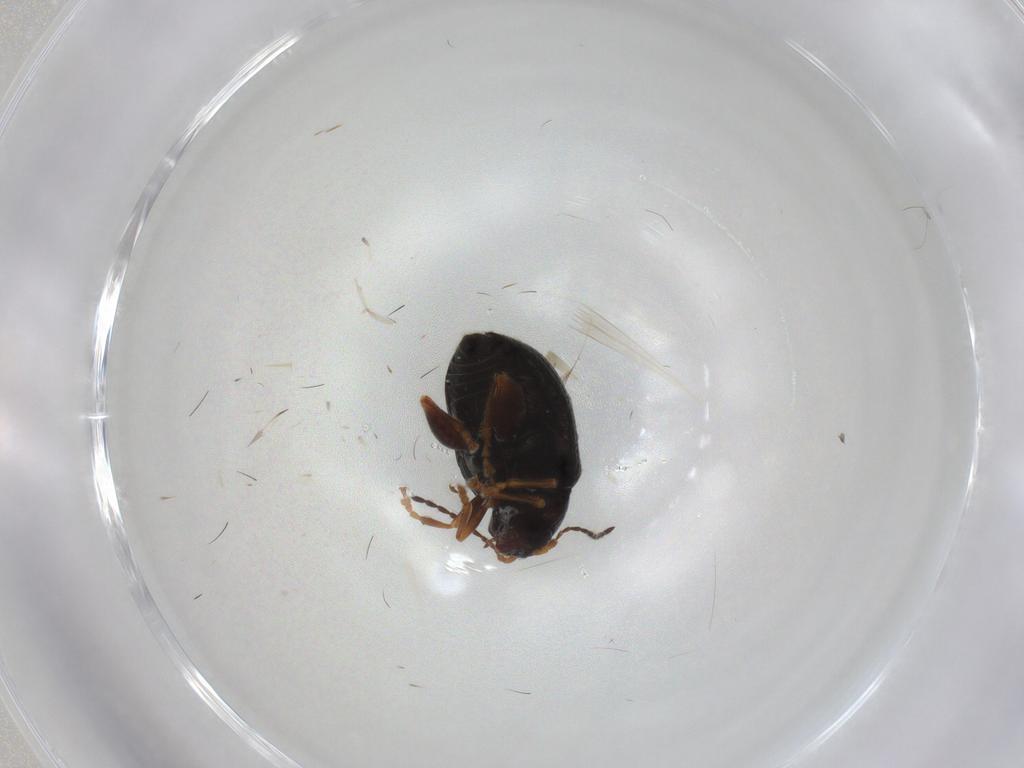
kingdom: Animalia
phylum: Arthropoda
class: Insecta
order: Coleoptera
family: Chrysomelidae
